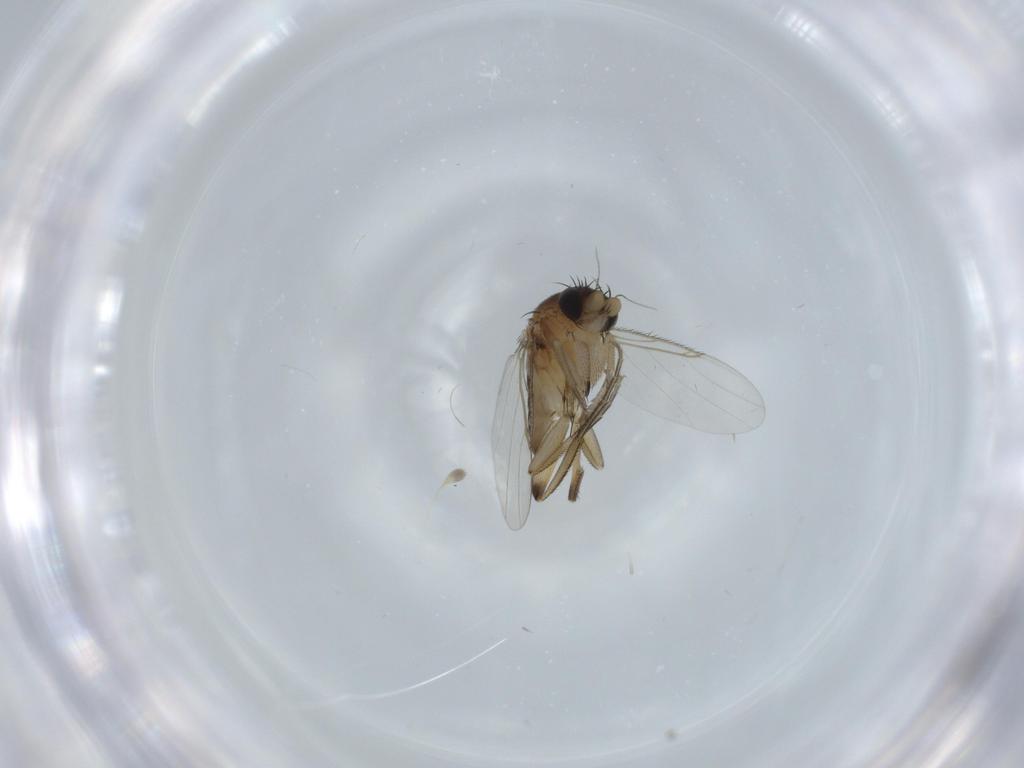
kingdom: Animalia
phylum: Arthropoda
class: Insecta
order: Diptera
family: Phoridae
